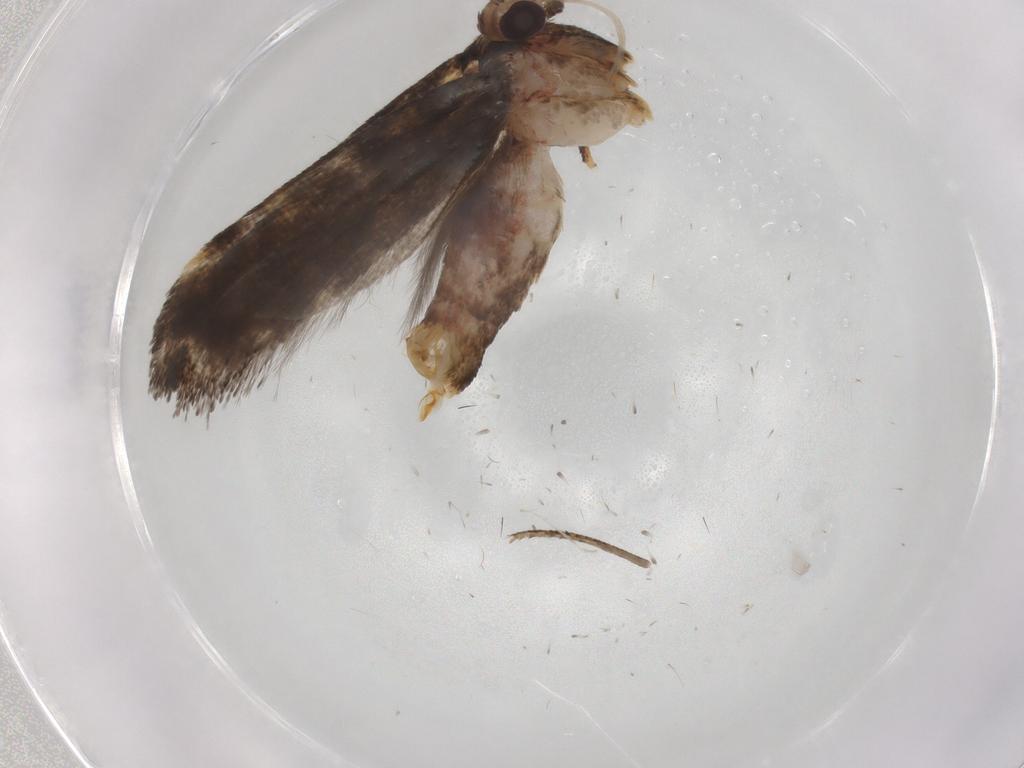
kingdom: Animalia
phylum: Arthropoda
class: Insecta
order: Lepidoptera
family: Gelechiidae
